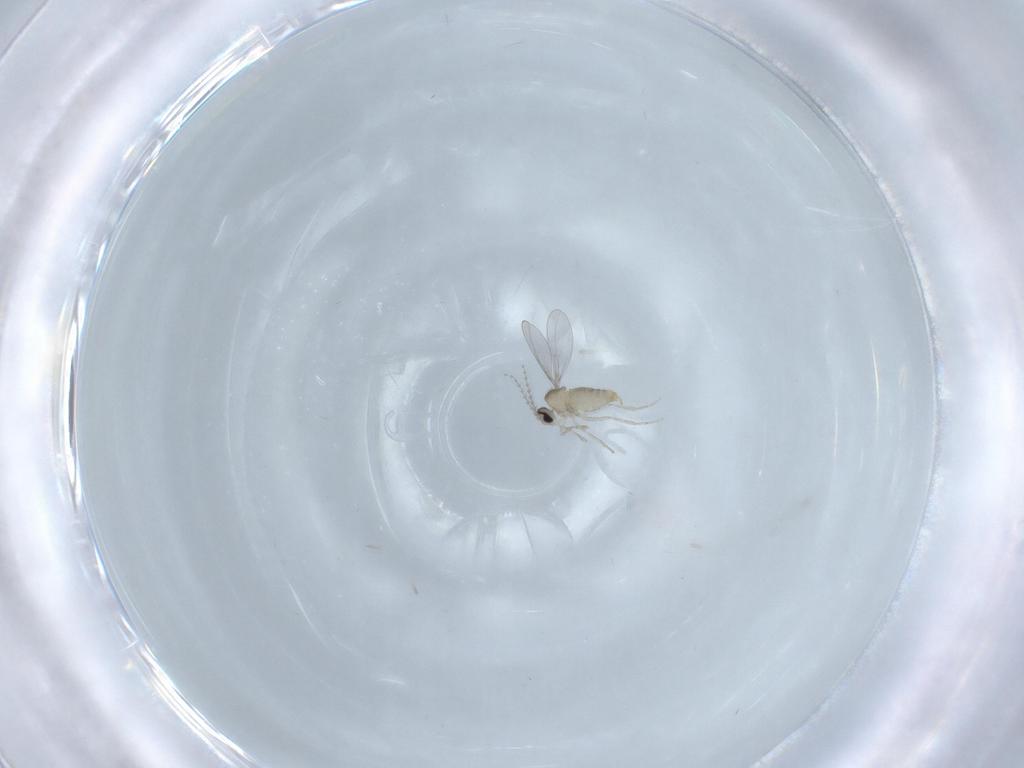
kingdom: Animalia
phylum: Arthropoda
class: Insecta
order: Diptera
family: Cecidomyiidae
